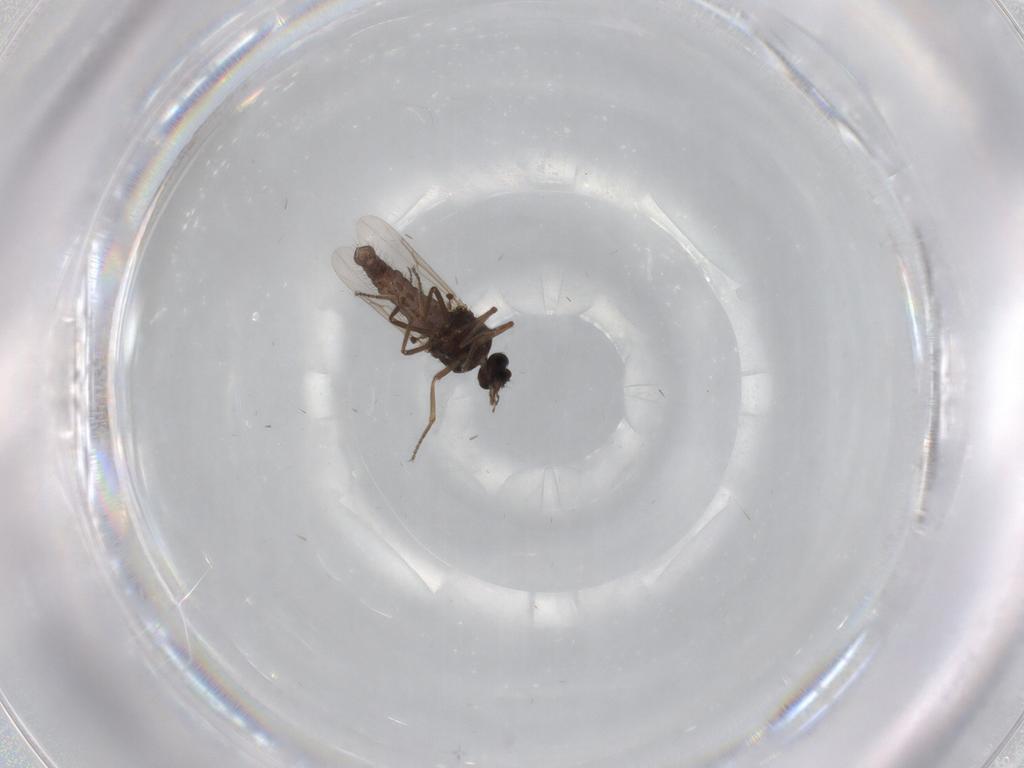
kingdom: Animalia
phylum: Arthropoda
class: Insecta
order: Diptera
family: Ceratopogonidae
